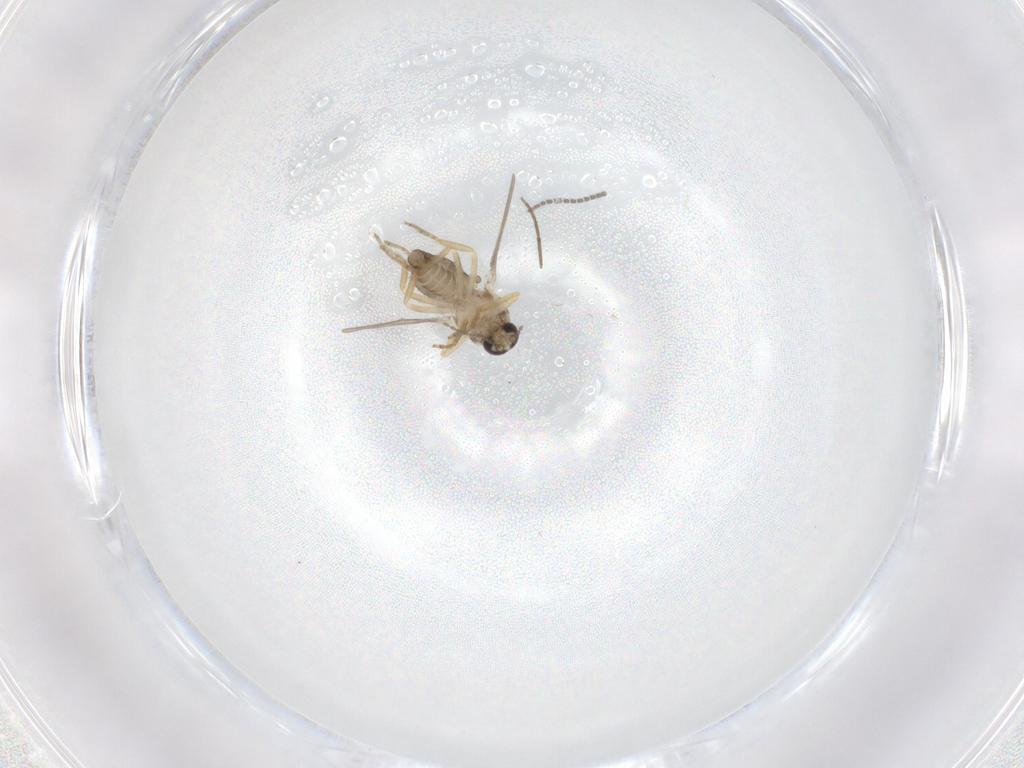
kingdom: Animalia
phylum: Arthropoda
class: Insecta
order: Diptera
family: Ceratopogonidae
